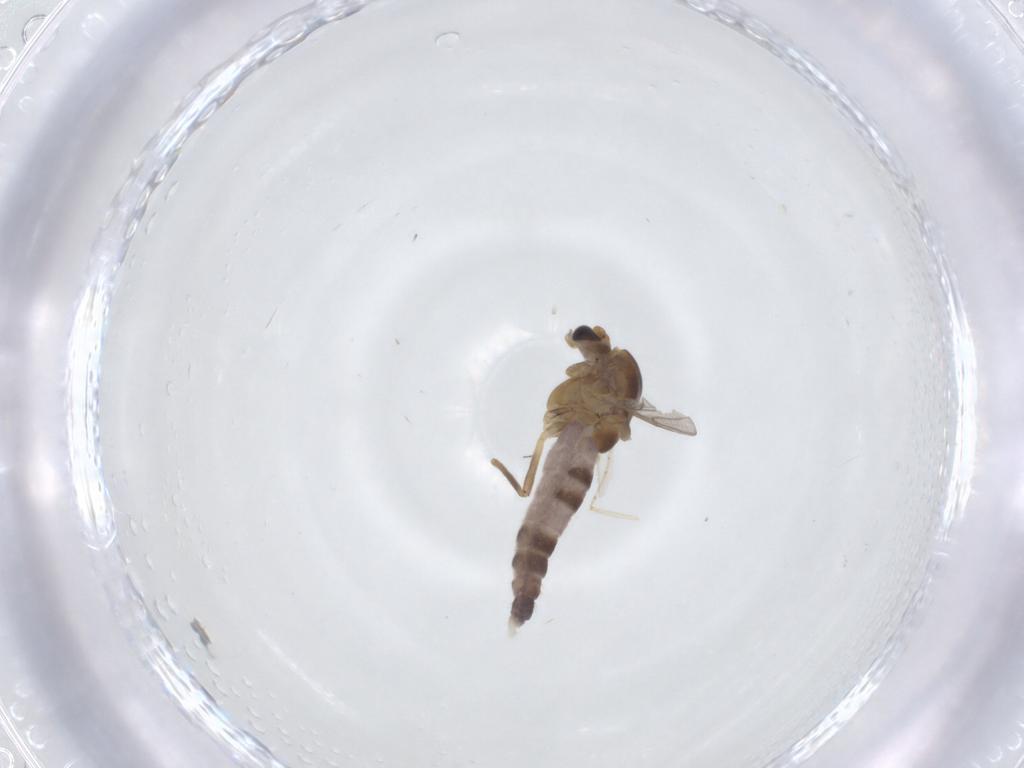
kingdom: Animalia
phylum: Arthropoda
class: Insecta
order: Diptera
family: Chironomidae
